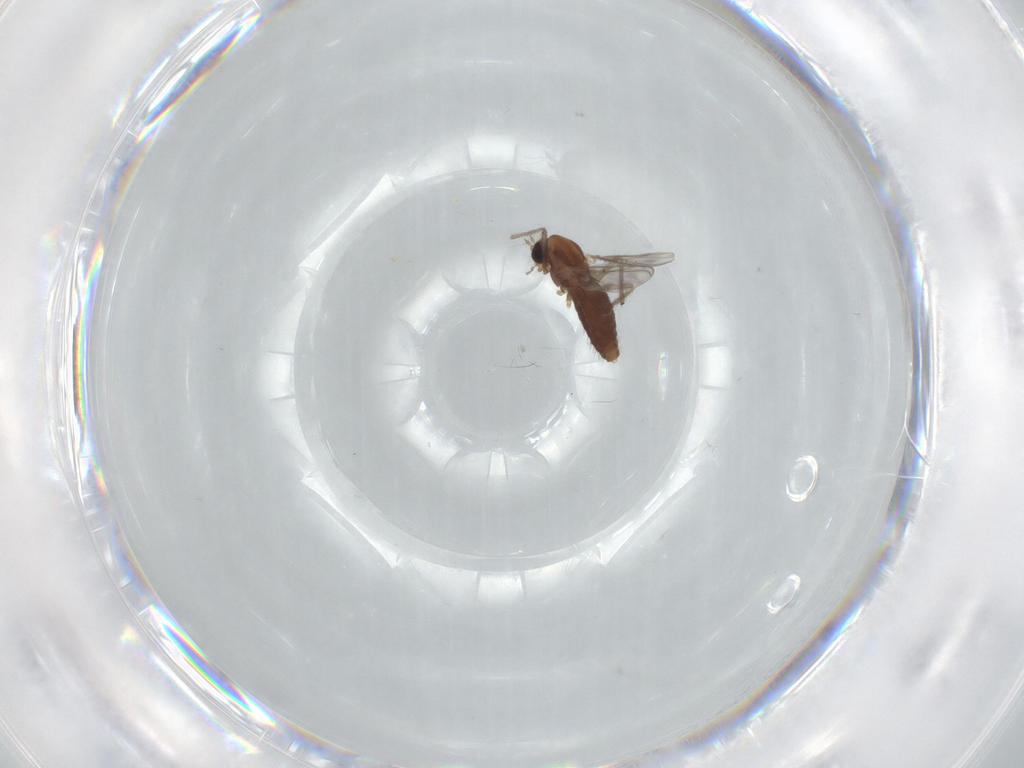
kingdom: Animalia
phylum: Arthropoda
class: Insecta
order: Diptera
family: Chironomidae
